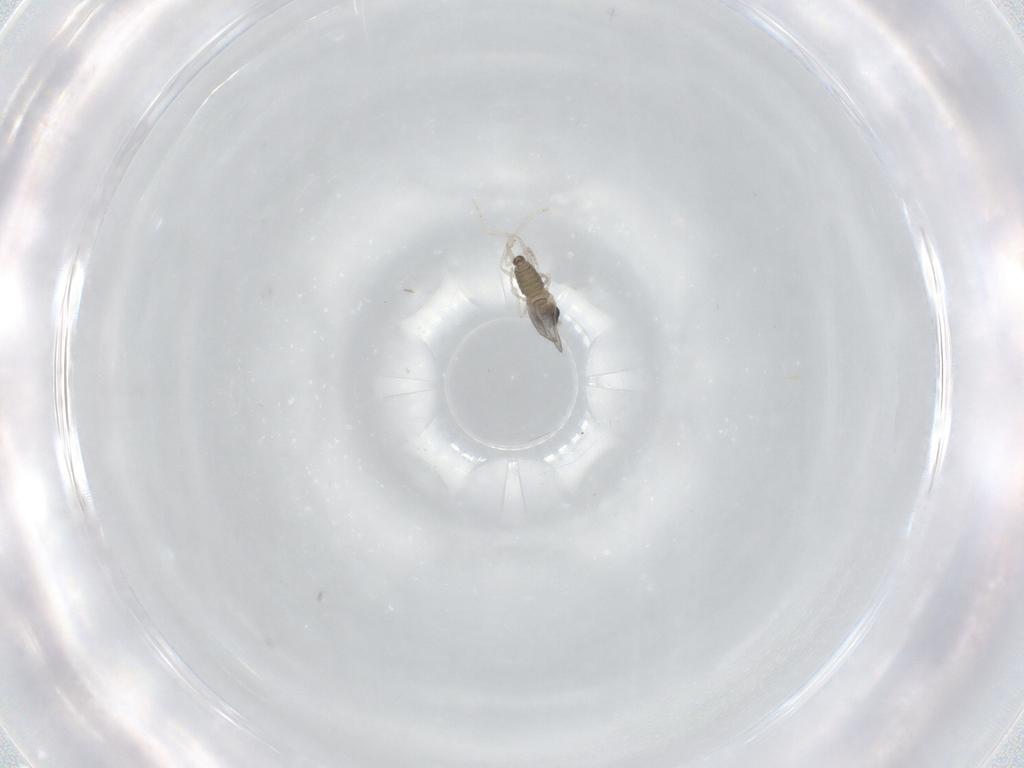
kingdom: Animalia
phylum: Arthropoda
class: Insecta
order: Diptera
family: Cecidomyiidae
